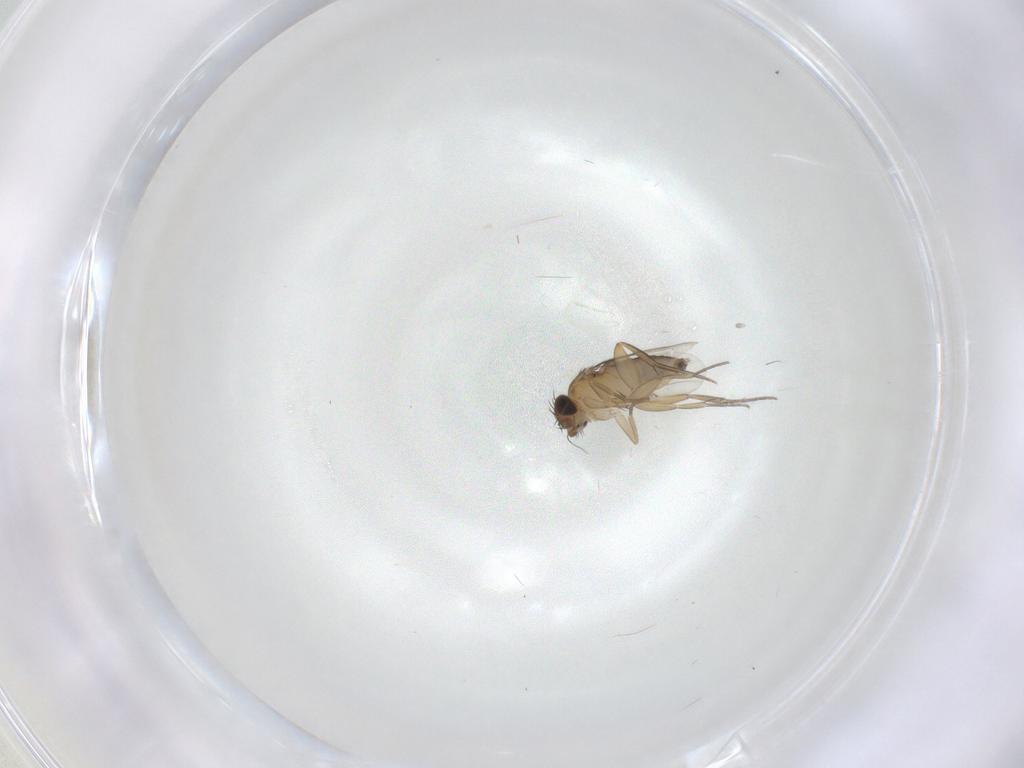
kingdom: Animalia
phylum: Arthropoda
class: Insecta
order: Diptera
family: Phoridae
